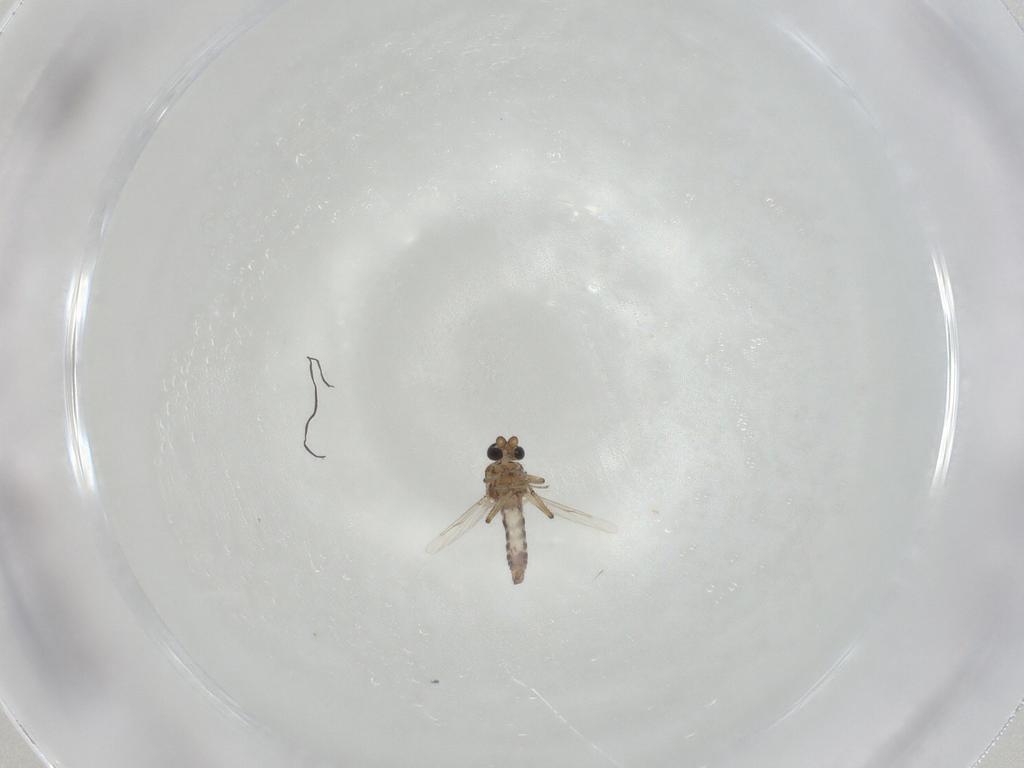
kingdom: Animalia
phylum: Arthropoda
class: Insecta
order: Diptera
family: Ceratopogonidae
